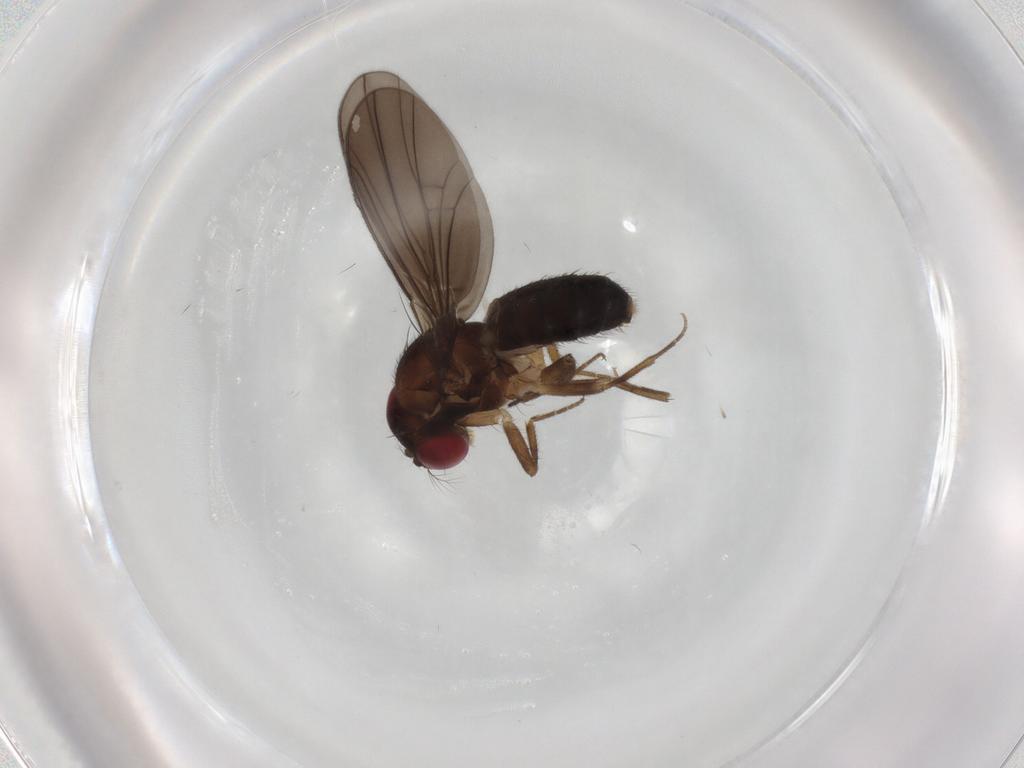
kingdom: Animalia
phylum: Arthropoda
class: Insecta
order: Diptera
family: Drosophilidae
